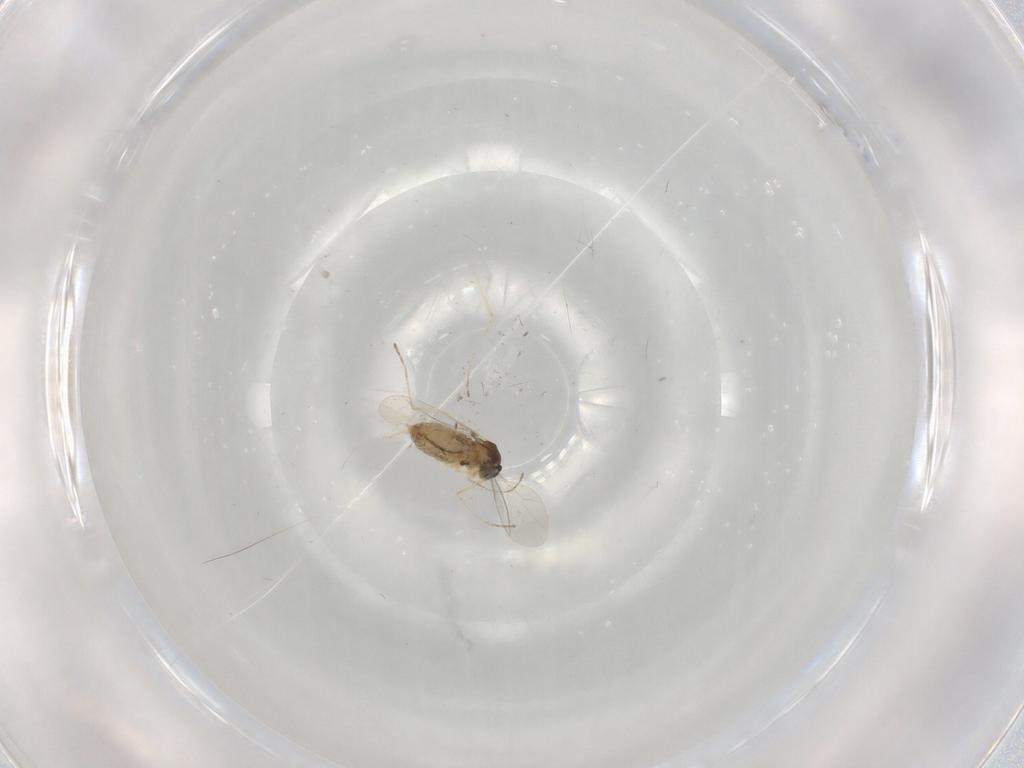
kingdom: Animalia
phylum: Arthropoda
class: Insecta
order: Diptera
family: Cecidomyiidae
